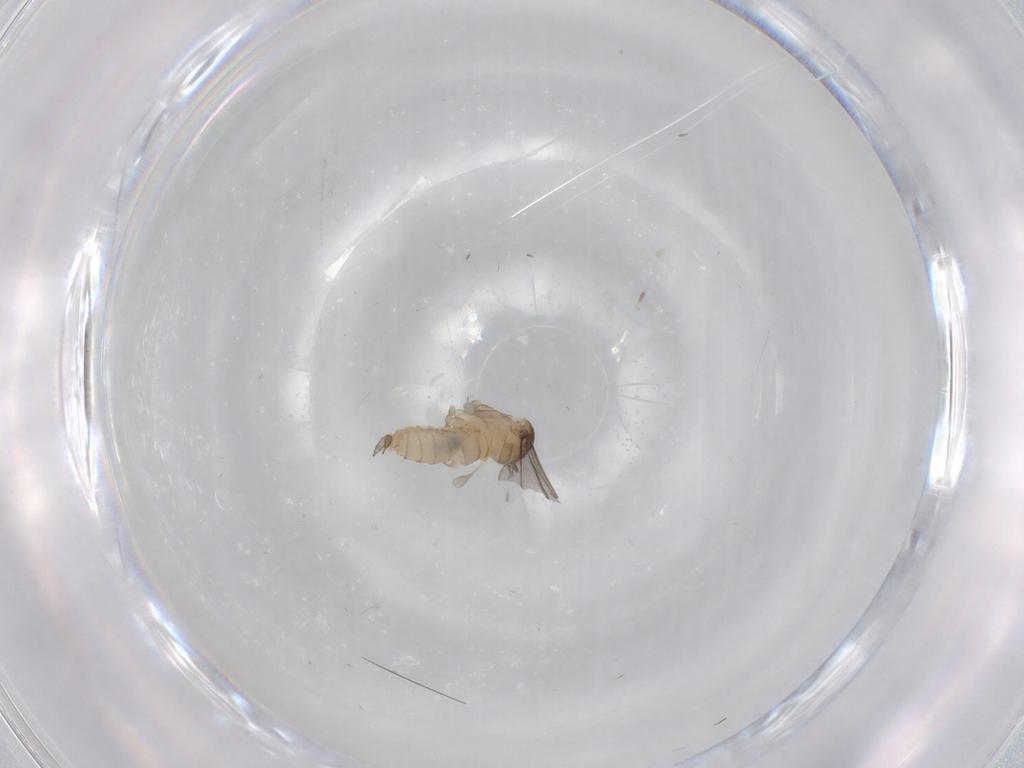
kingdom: Animalia
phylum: Arthropoda
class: Insecta
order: Diptera
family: Cecidomyiidae
